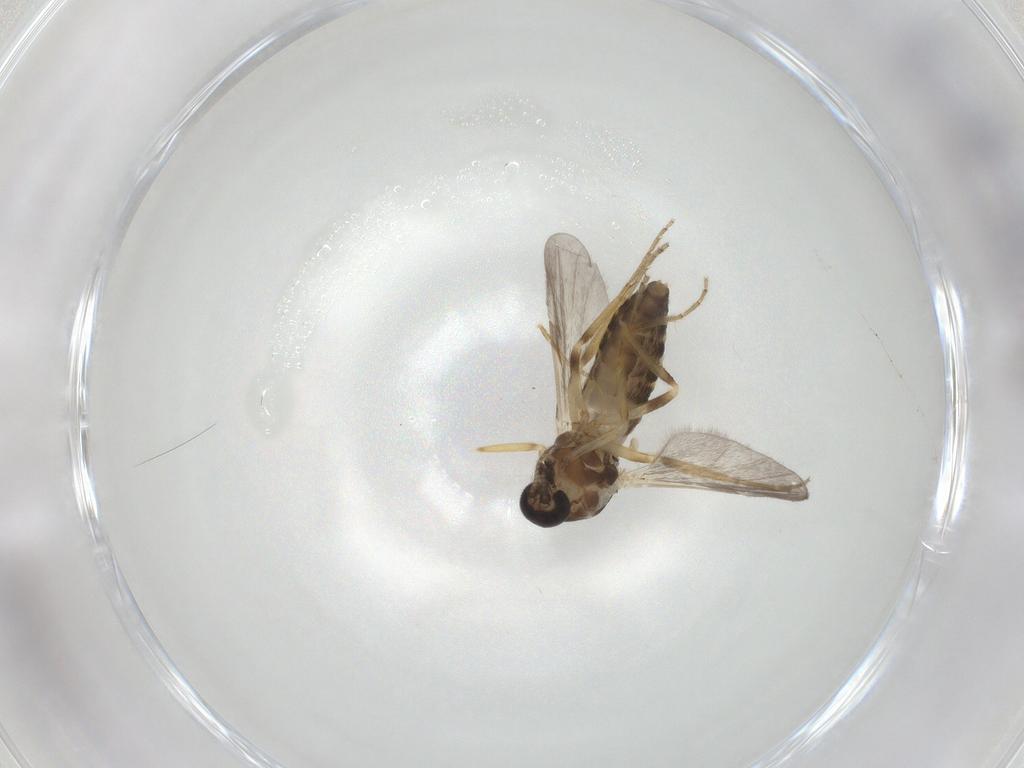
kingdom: Animalia
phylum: Arthropoda
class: Insecta
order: Diptera
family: Ceratopogonidae
